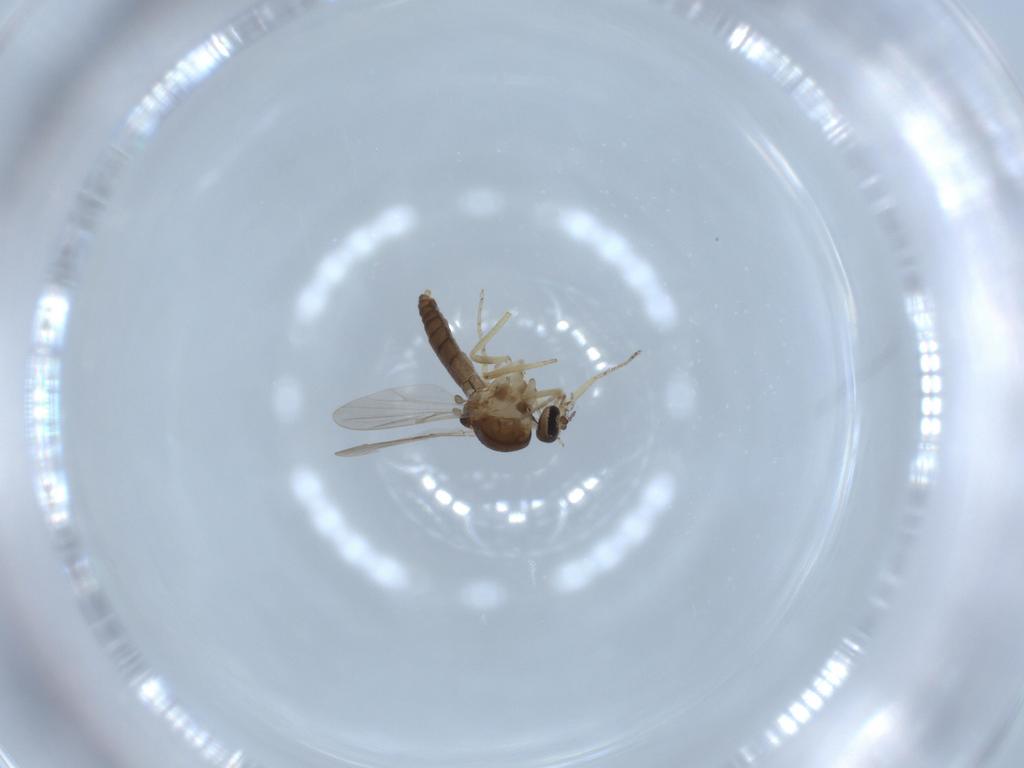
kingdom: Animalia
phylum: Arthropoda
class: Insecta
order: Diptera
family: Ceratopogonidae
